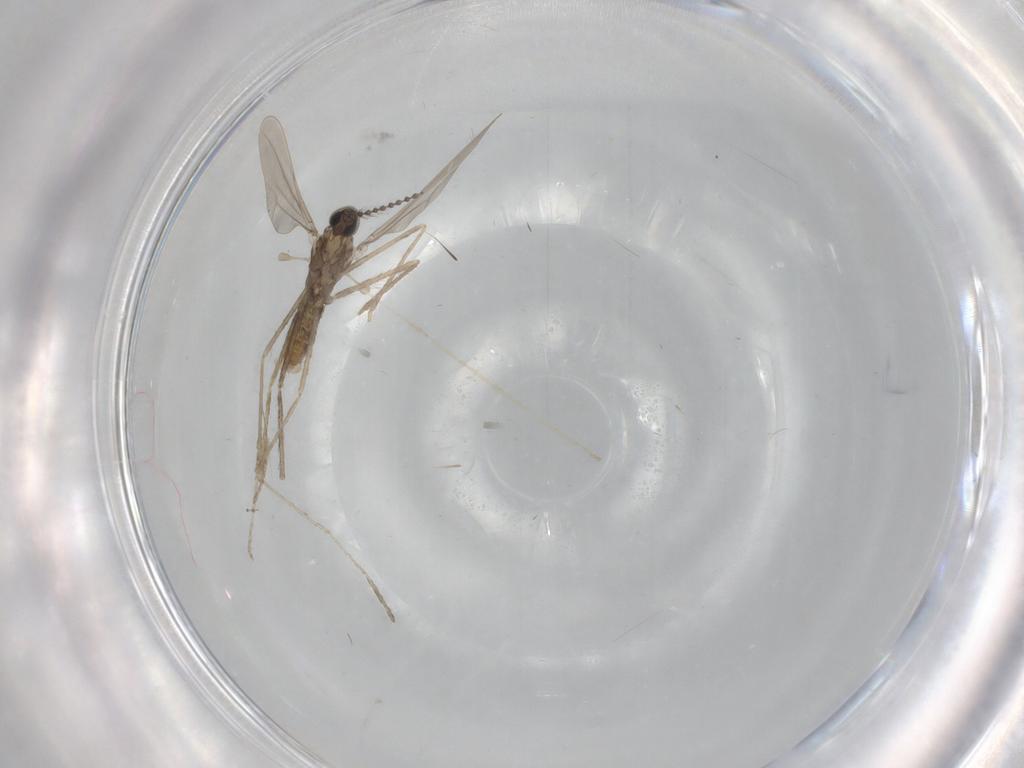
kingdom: Animalia
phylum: Arthropoda
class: Insecta
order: Diptera
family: Cecidomyiidae
